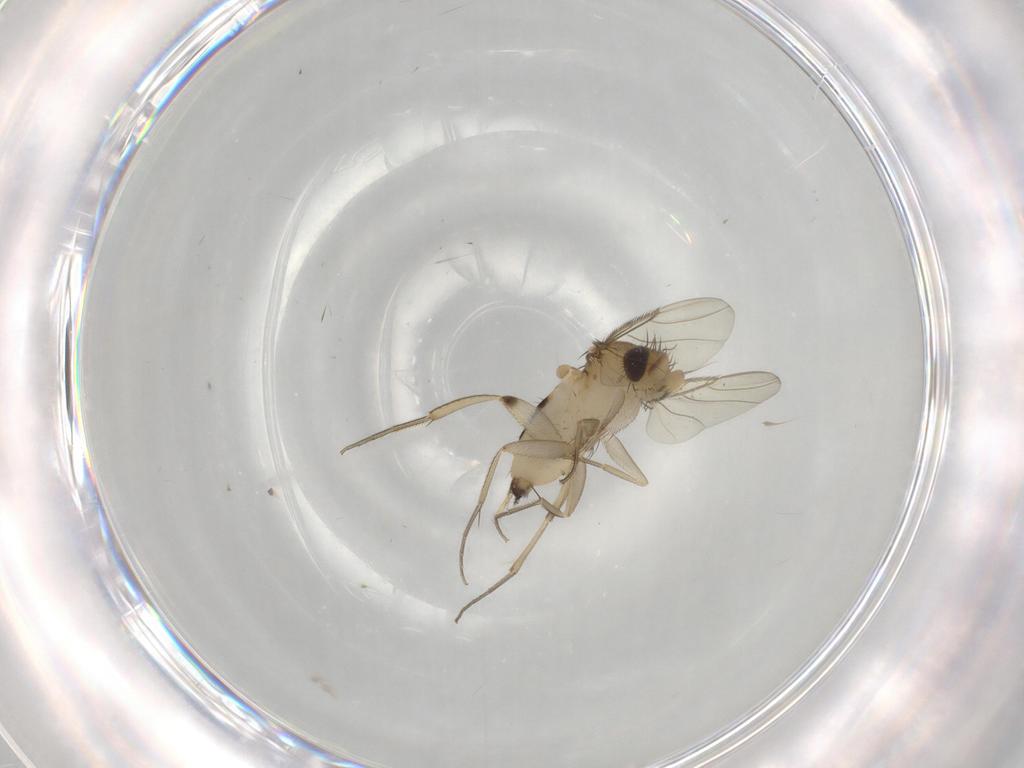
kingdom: Animalia
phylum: Arthropoda
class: Insecta
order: Diptera
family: Phoridae
